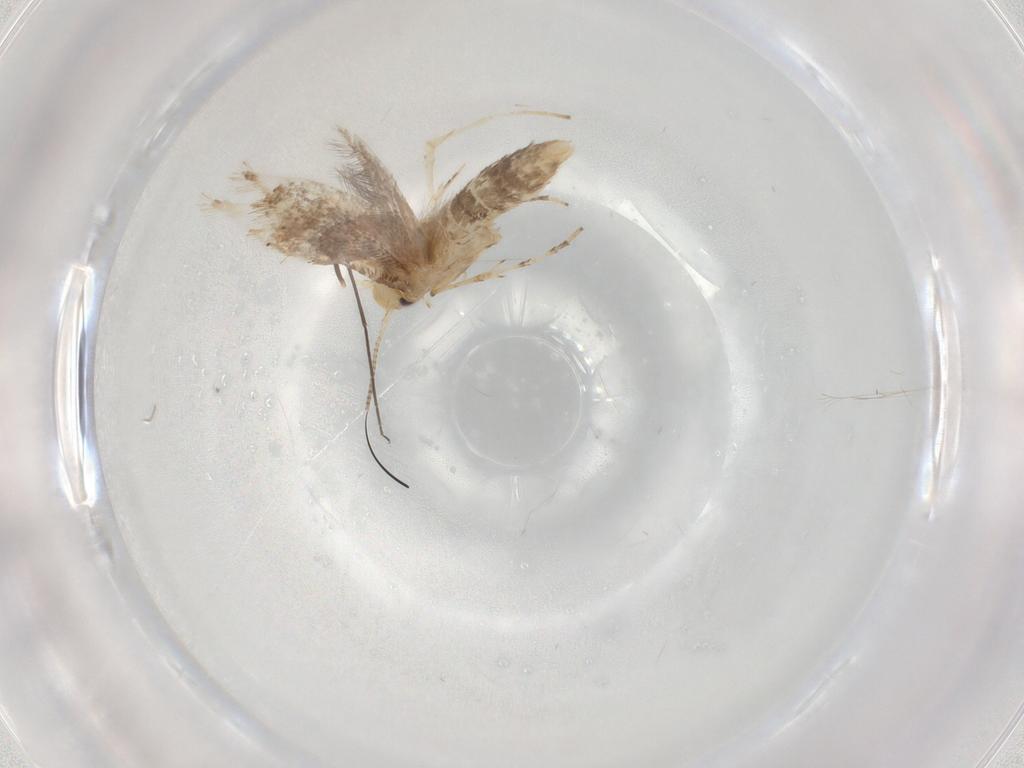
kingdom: Animalia
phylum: Arthropoda
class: Insecta
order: Lepidoptera
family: Gracillariidae
